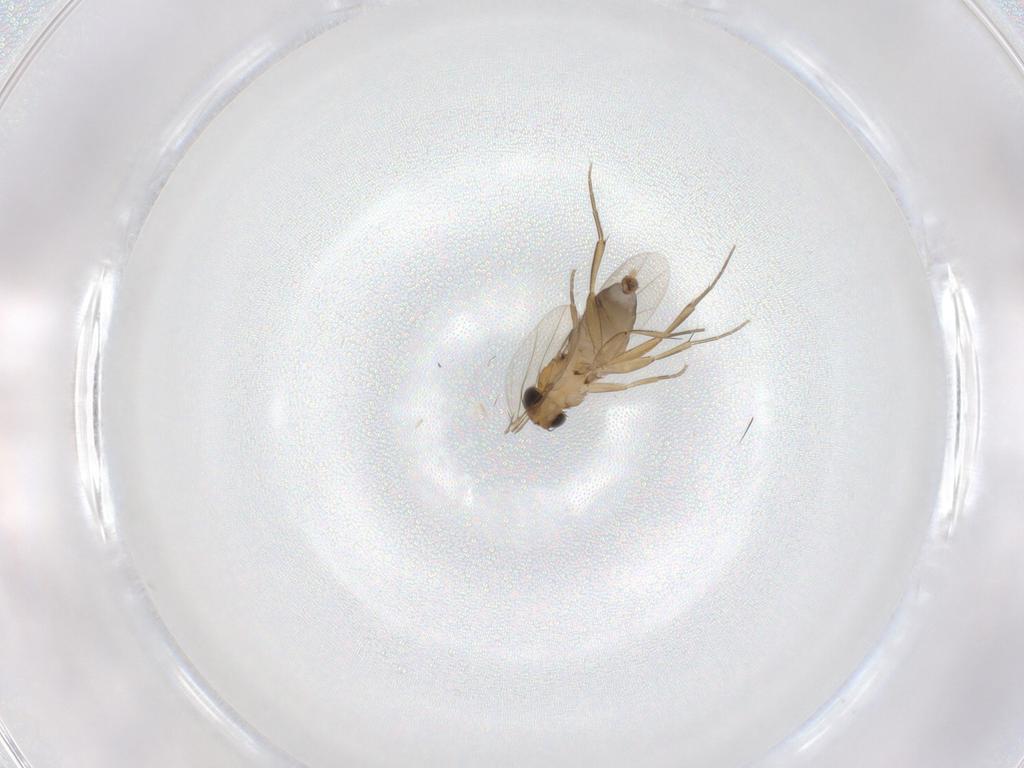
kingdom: Animalia
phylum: Arthropoda
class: Insecta
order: Diptera
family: Phoridae
